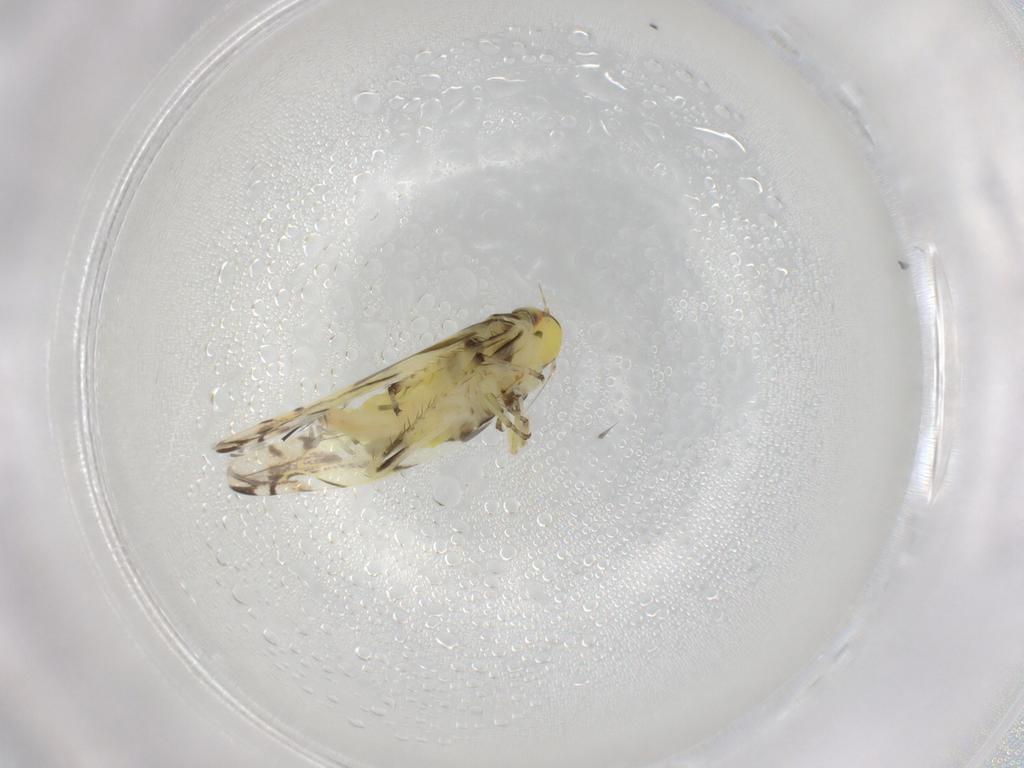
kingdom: Animalia
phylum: Arthropoda
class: Insecta
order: Hemiptera
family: Cicadellidae
